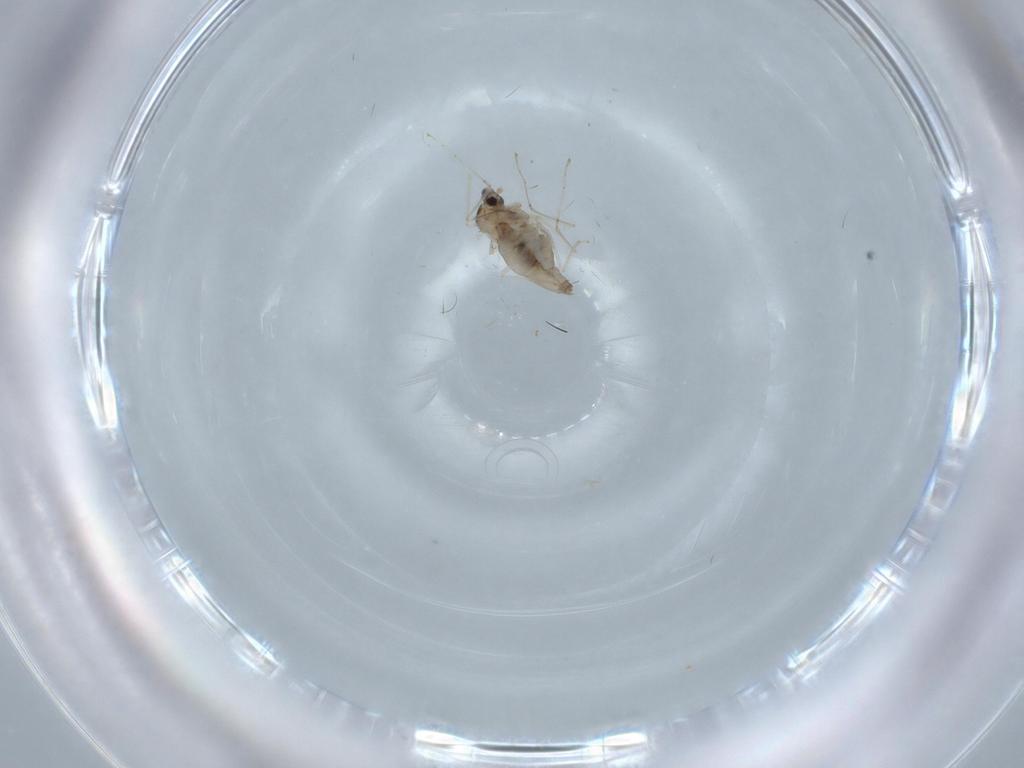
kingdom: Animalia
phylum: Arthropoda
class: Insecta
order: Diptera
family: Cecidomyiidae
